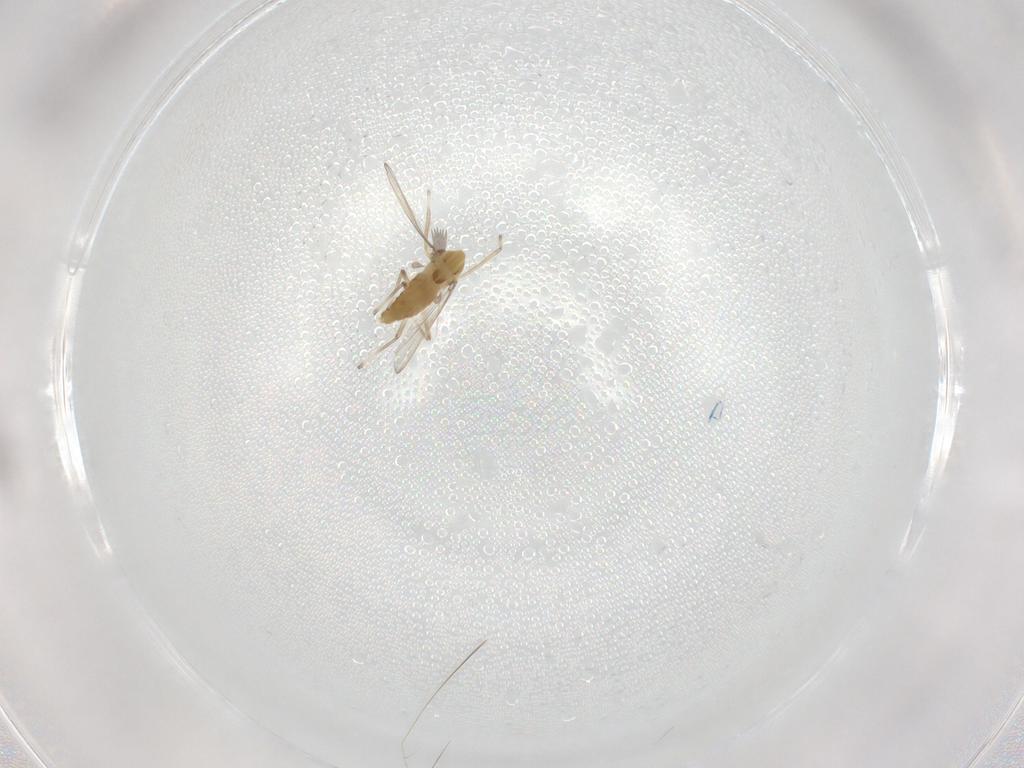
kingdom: Animalia
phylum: Arthropoda
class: Insecta
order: Diptera
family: Chironomidae
